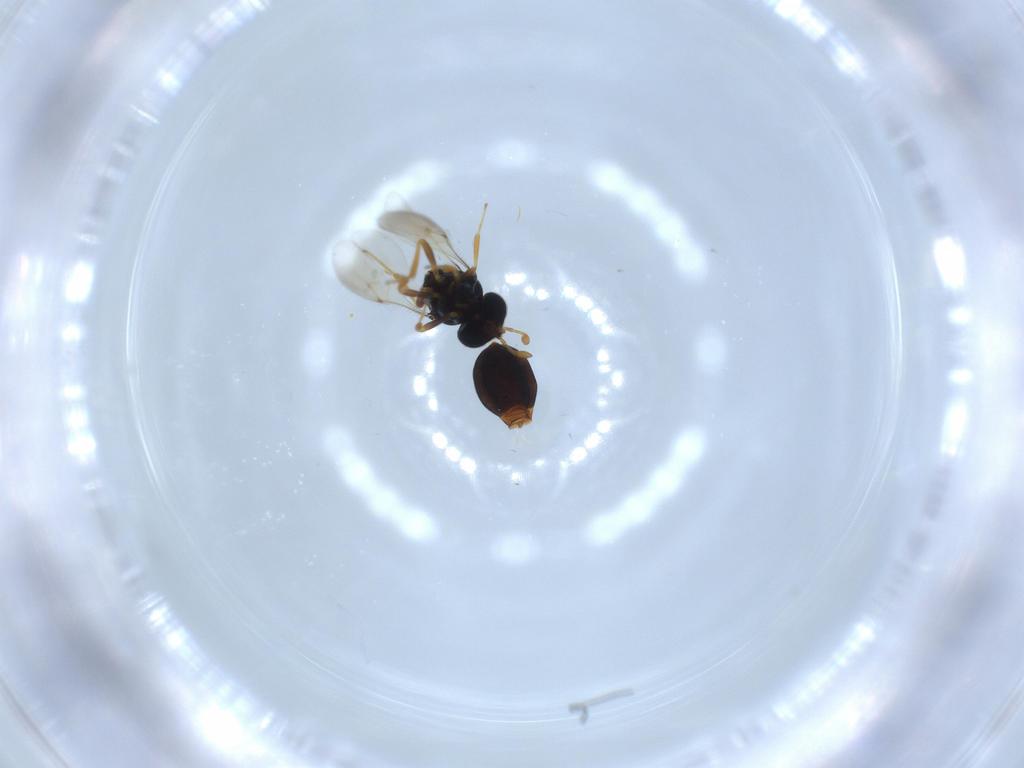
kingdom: Animalia
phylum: Arthropoda
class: Insecta
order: Hymenoptera
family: Scelionidae
